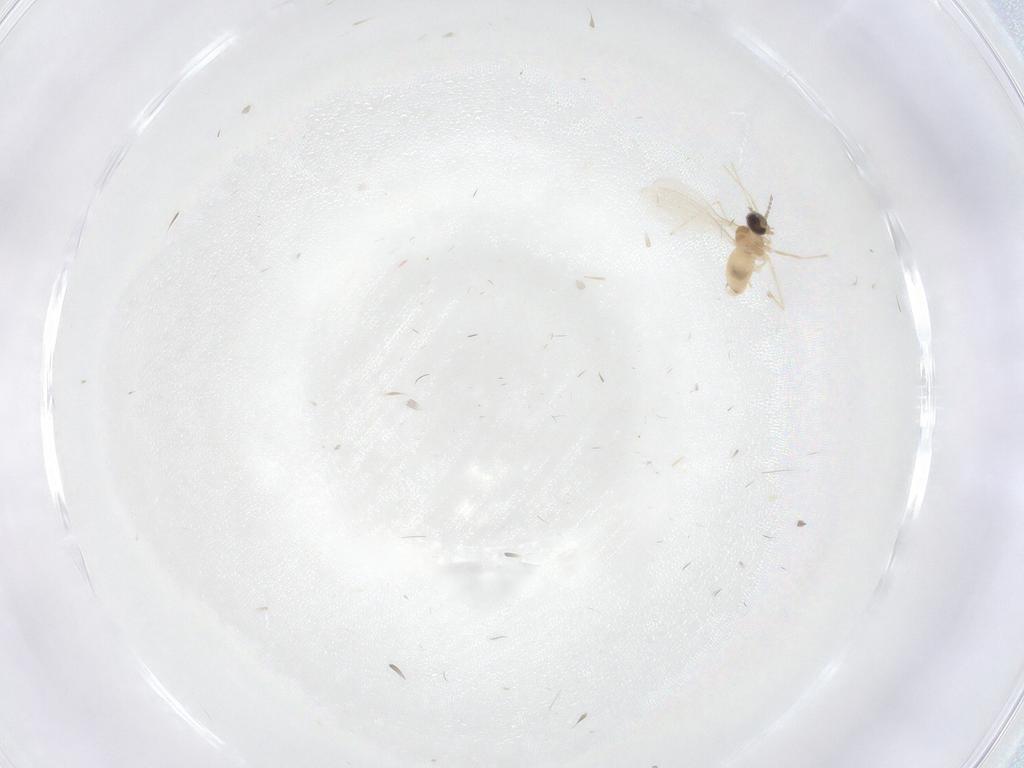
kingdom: Animalia
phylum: Arthropoda
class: Insecta
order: Diptera
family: Cecidomyiidae
